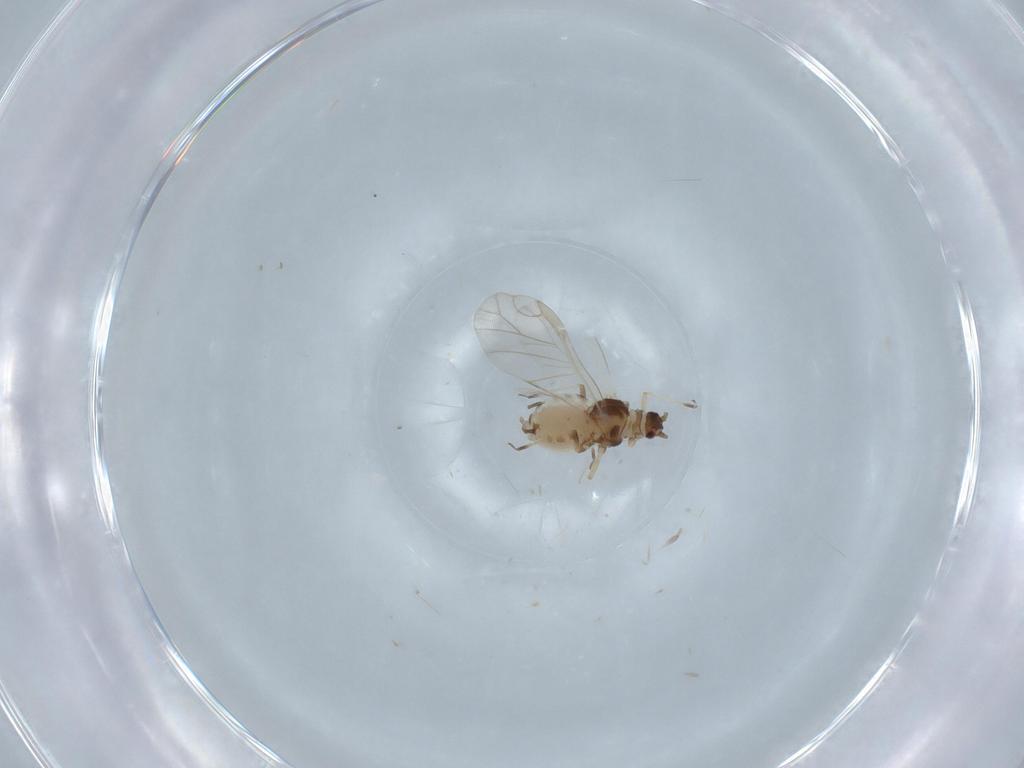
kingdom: Animalia
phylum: Arthropoda
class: Insecta
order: Hemiptera
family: Aphididae
